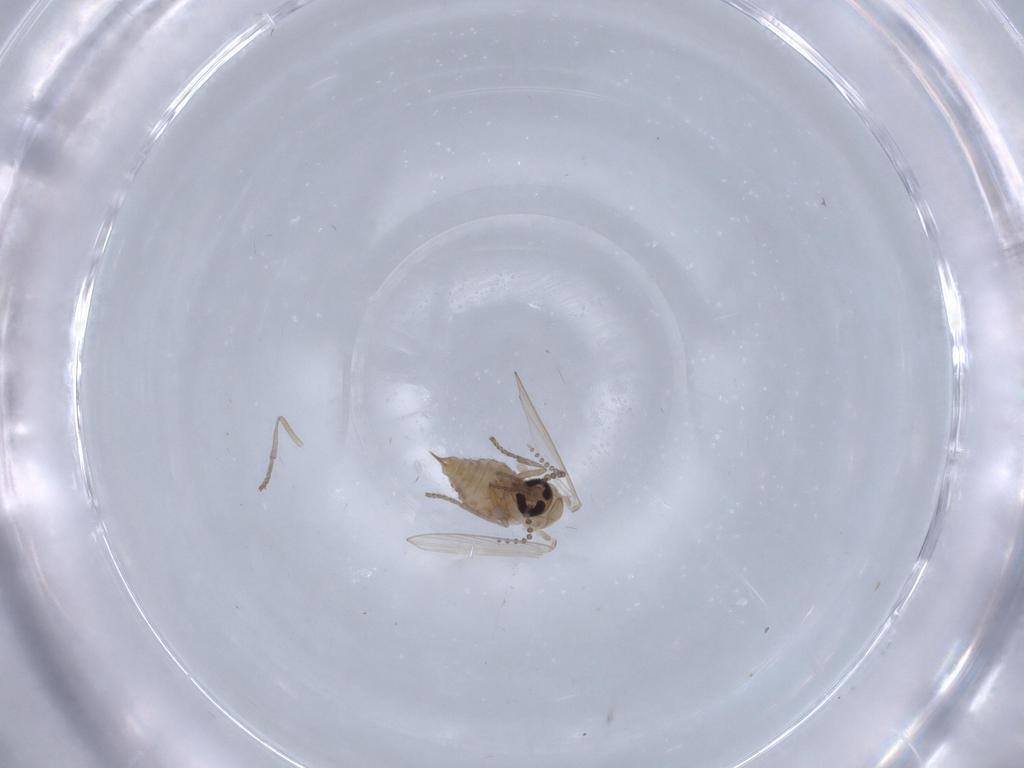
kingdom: Animalia
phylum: Arthropoda
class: Insecta
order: Diptera
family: Psychodidae
